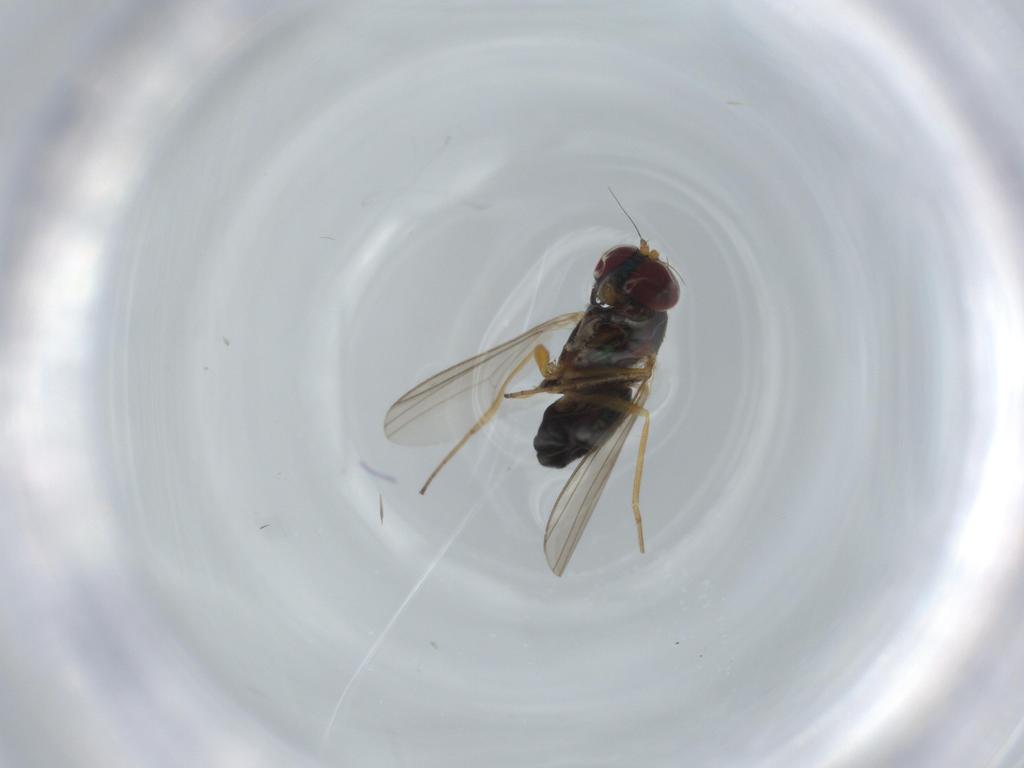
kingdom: Animalia
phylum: Arthropoda
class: Insecta
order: Diptera
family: Dolichopodidae
